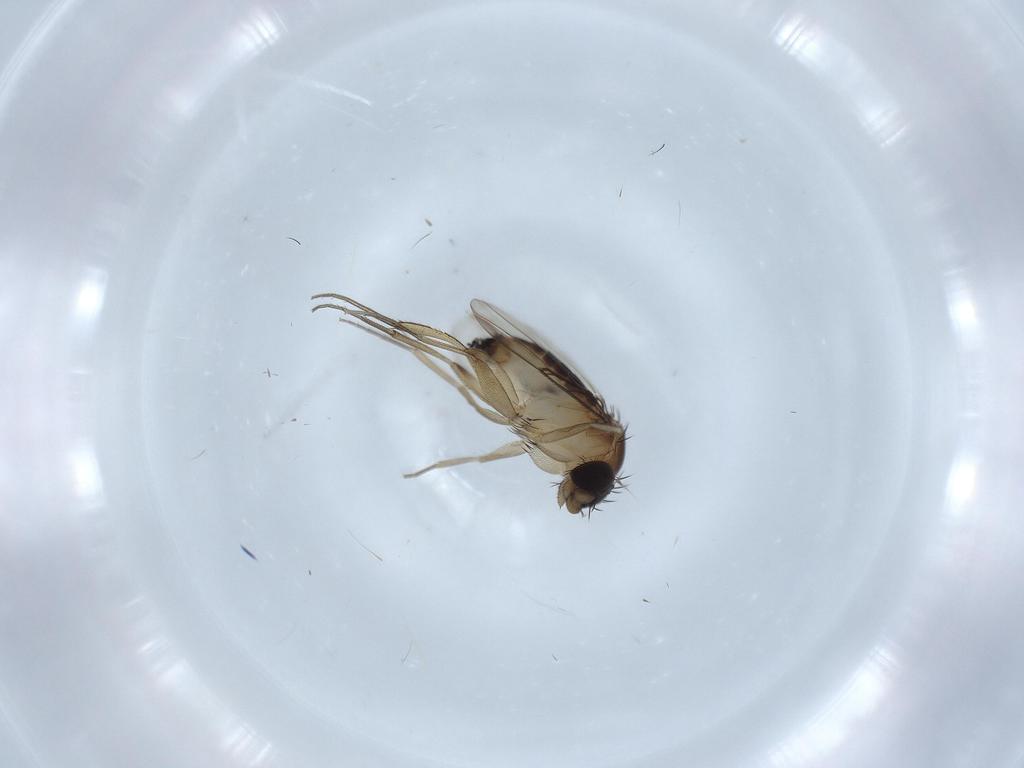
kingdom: Animalia
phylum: Arthropoda
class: Insecta
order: Diptera
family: Phoridae
